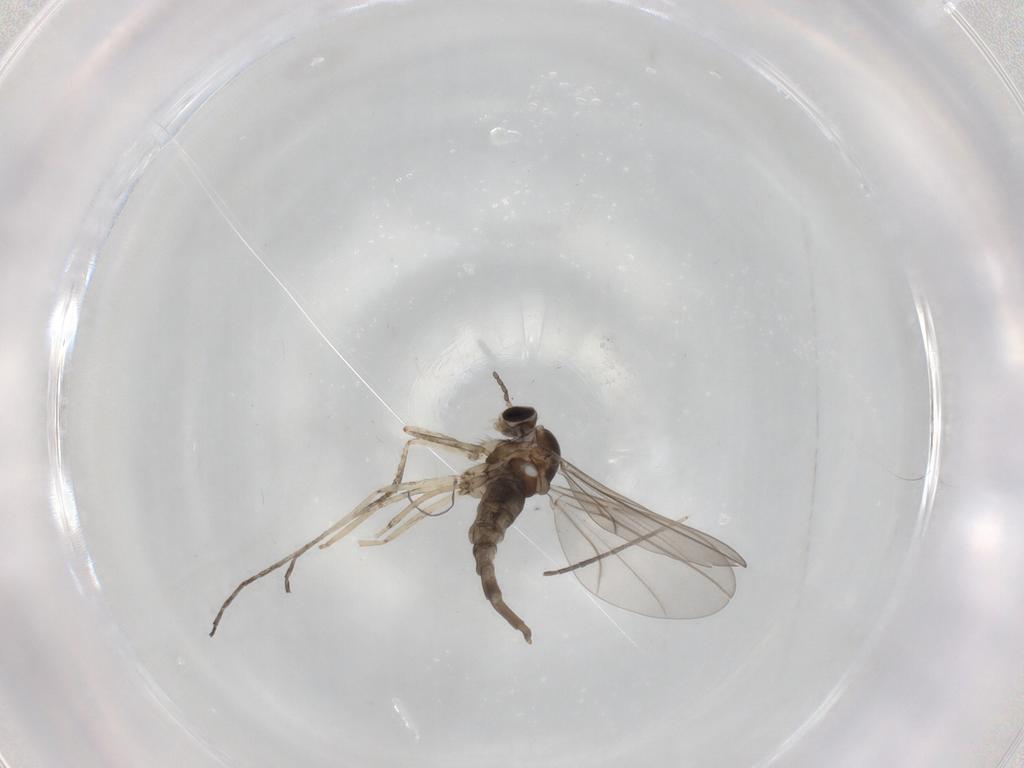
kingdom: Animalia
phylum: Arthropoda
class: Insecta
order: Diptera
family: Cecidomyiidae
